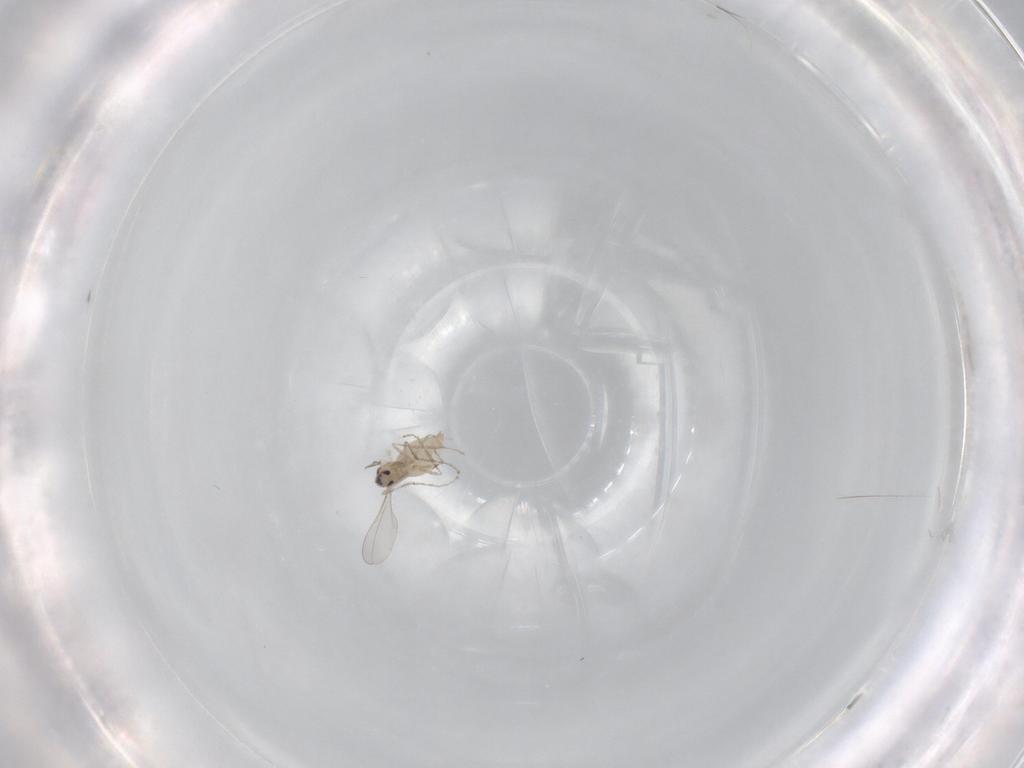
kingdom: Animalia
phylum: Arthropoda
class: Insecta
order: Diptera
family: Cecidomyiidae
